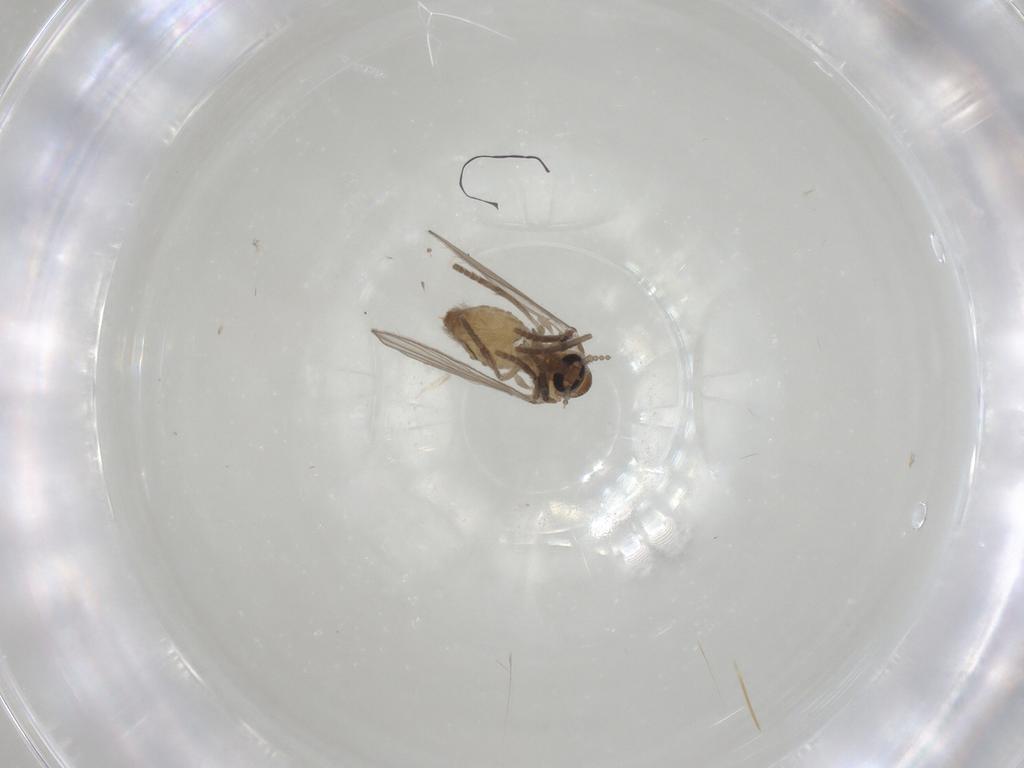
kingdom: Animalia
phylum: Arthropoda
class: Insecta
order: Diptera
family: Psychodidae
